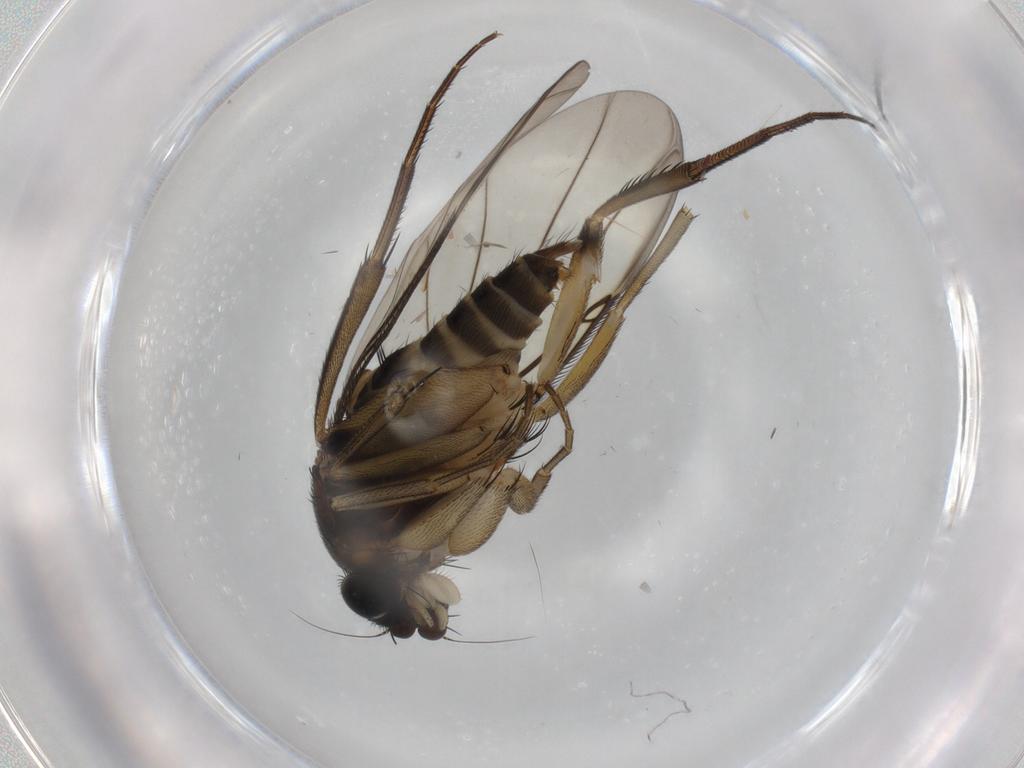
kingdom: Animalia
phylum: Arthropoda
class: Insecta
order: Diptera
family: Phoridae
